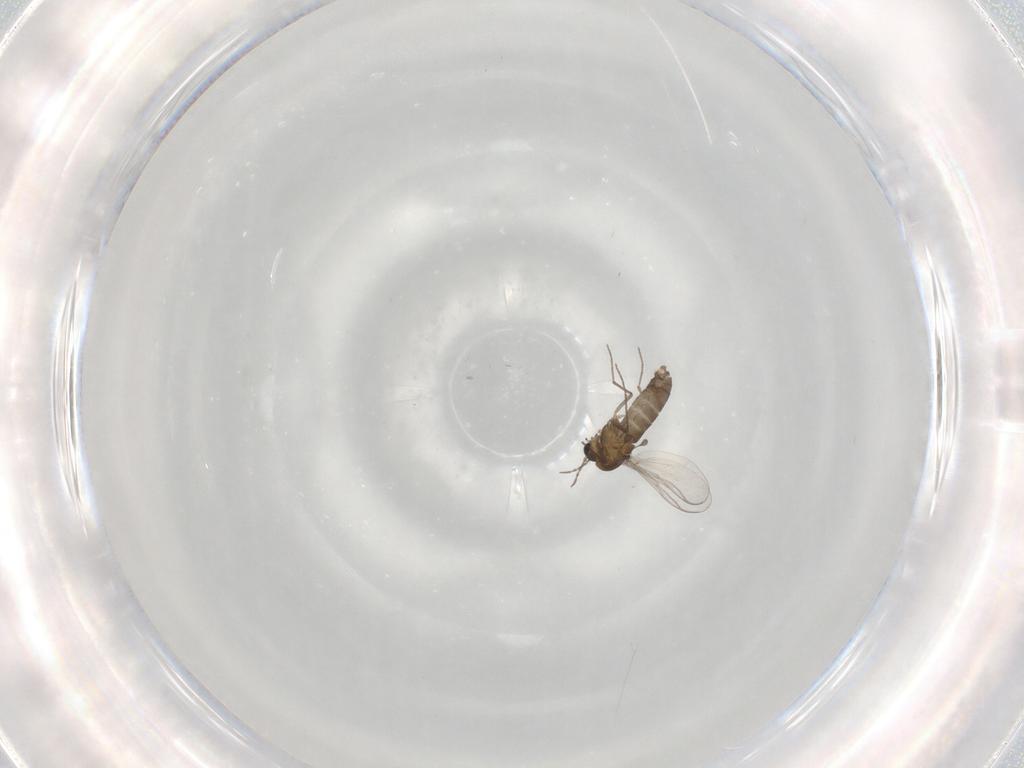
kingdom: Animalia
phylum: Arthropoda
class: Insecta
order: Diptera
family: Chironomidae
